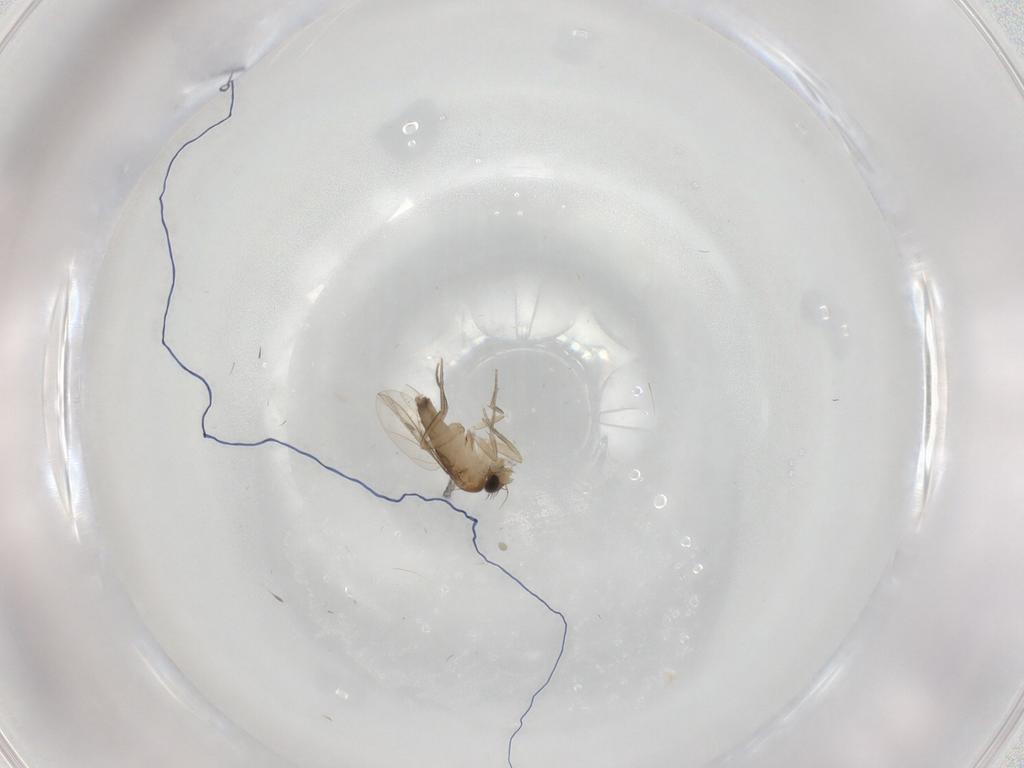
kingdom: Animalia
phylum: Arthropoda
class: Insecta
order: Diptera
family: Phoridae
